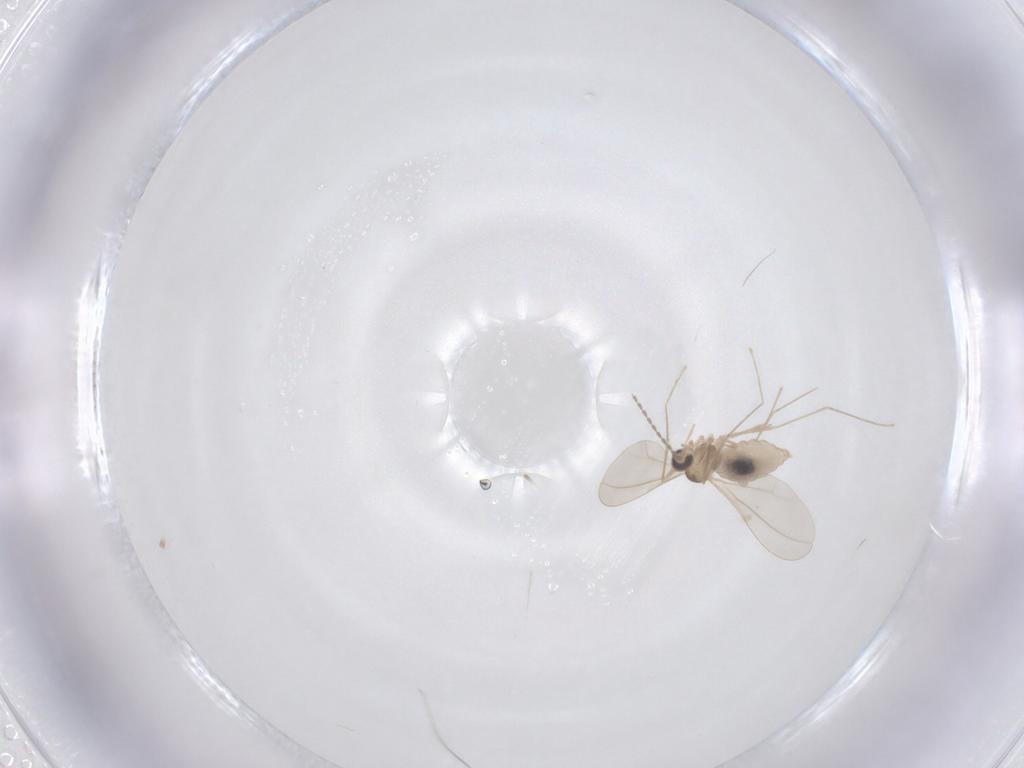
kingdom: Animalia
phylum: Arthropoda
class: Insecta
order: Diptera
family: Cecidomyiidae
